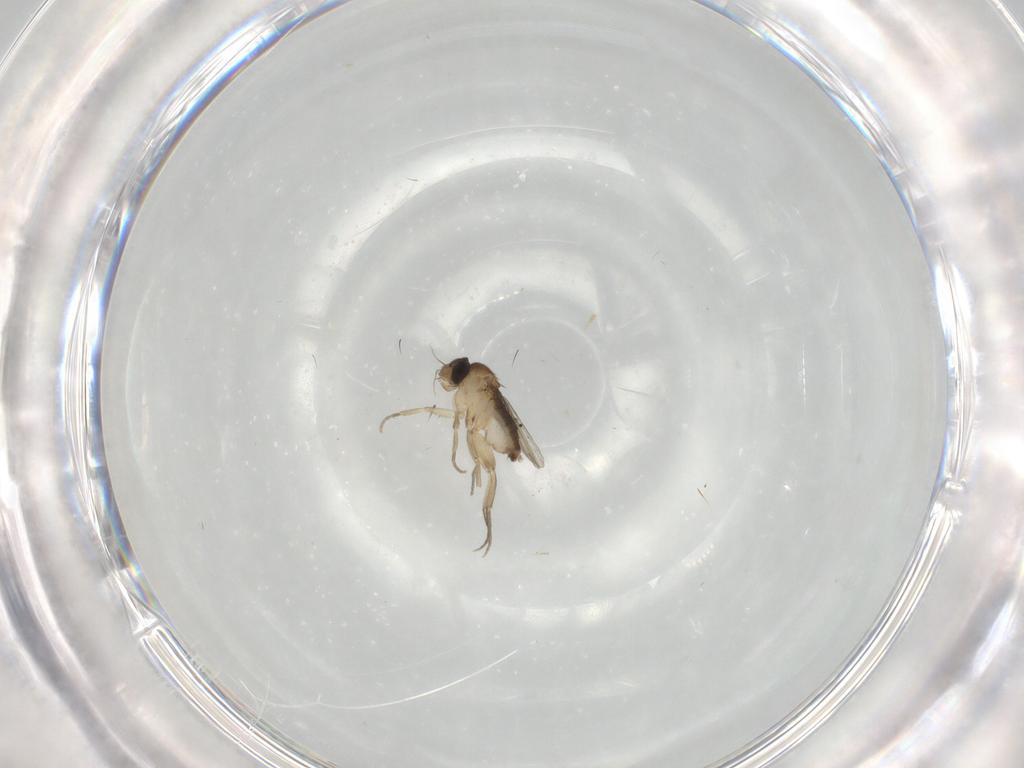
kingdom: Animalia
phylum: Arthropoda
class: Insecta
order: Diptera
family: Phoridae
